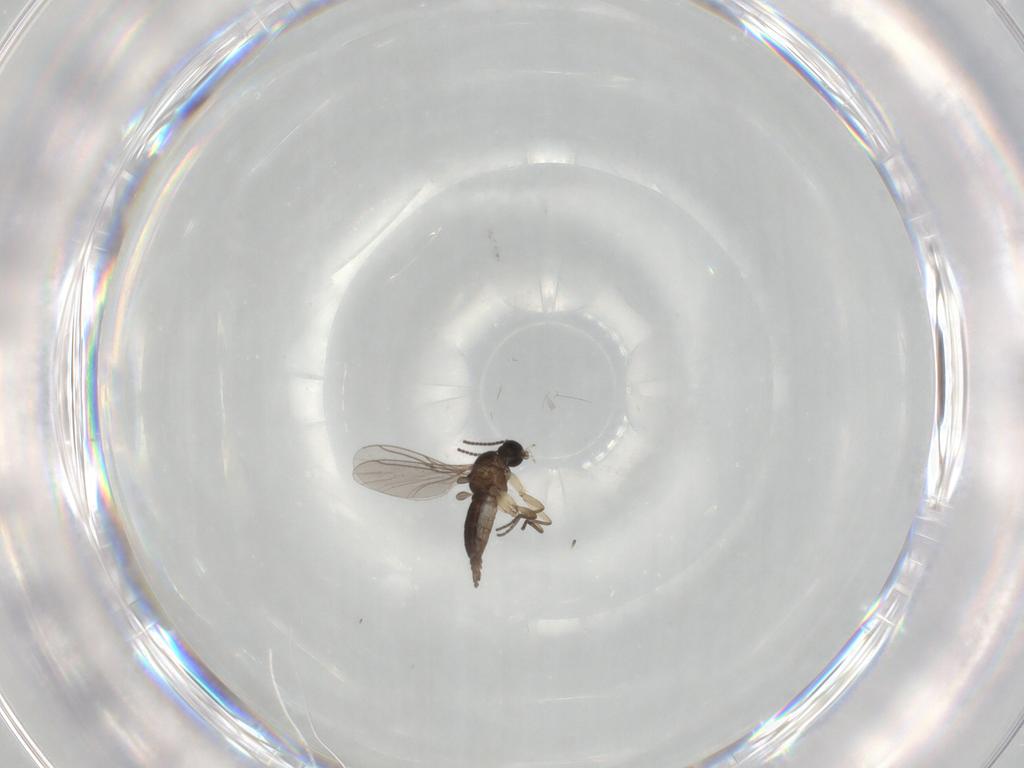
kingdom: Animalia
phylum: Arthropoda
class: Insecta
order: Diptera
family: Sciaridae
